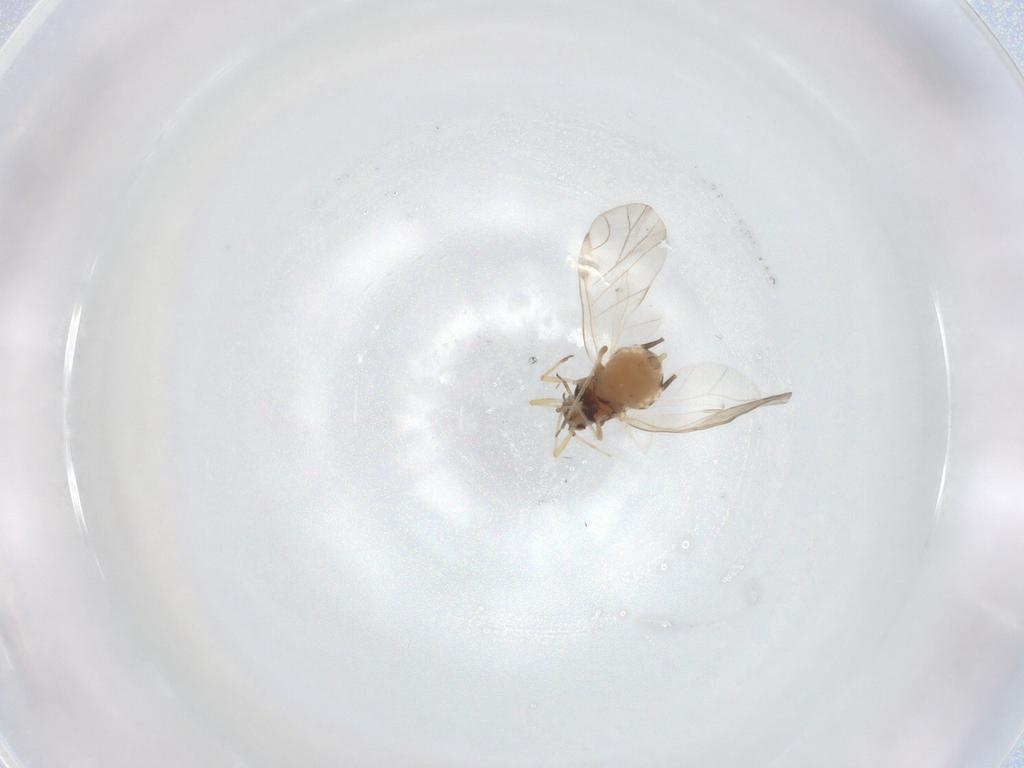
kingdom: Animalia
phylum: Arthropoda
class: Insecta
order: Hemiptera
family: Aphididae
